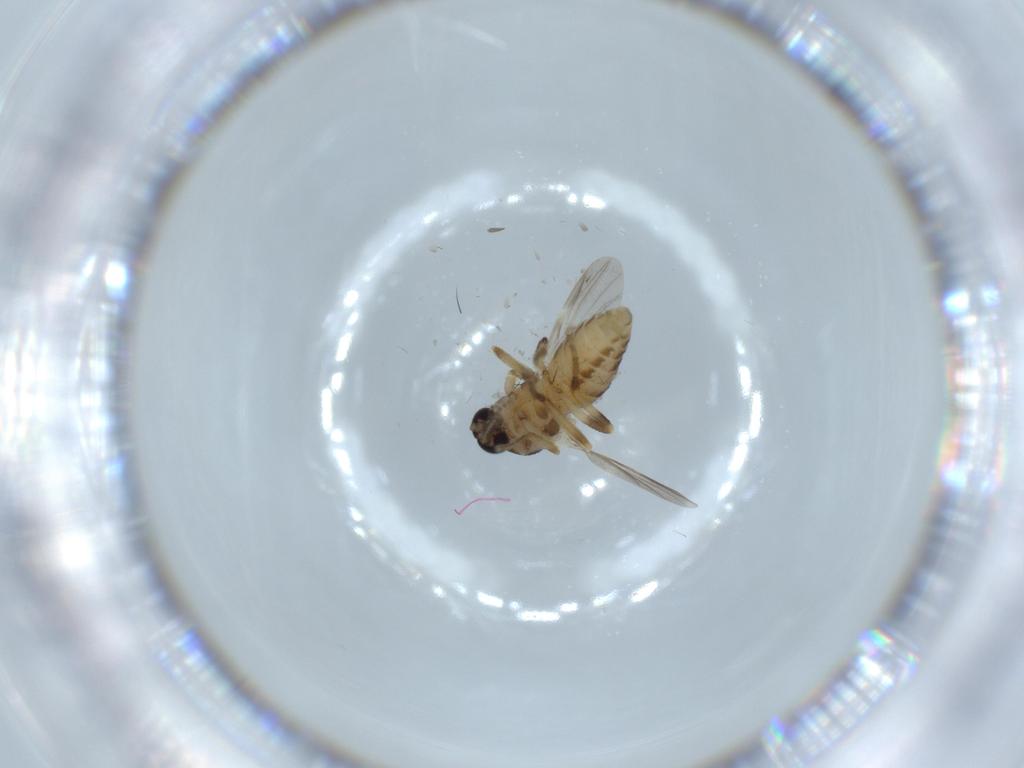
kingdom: Animalia
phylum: Arthropoda
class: Insecta
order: Diptera
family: Ceratopogonidae
